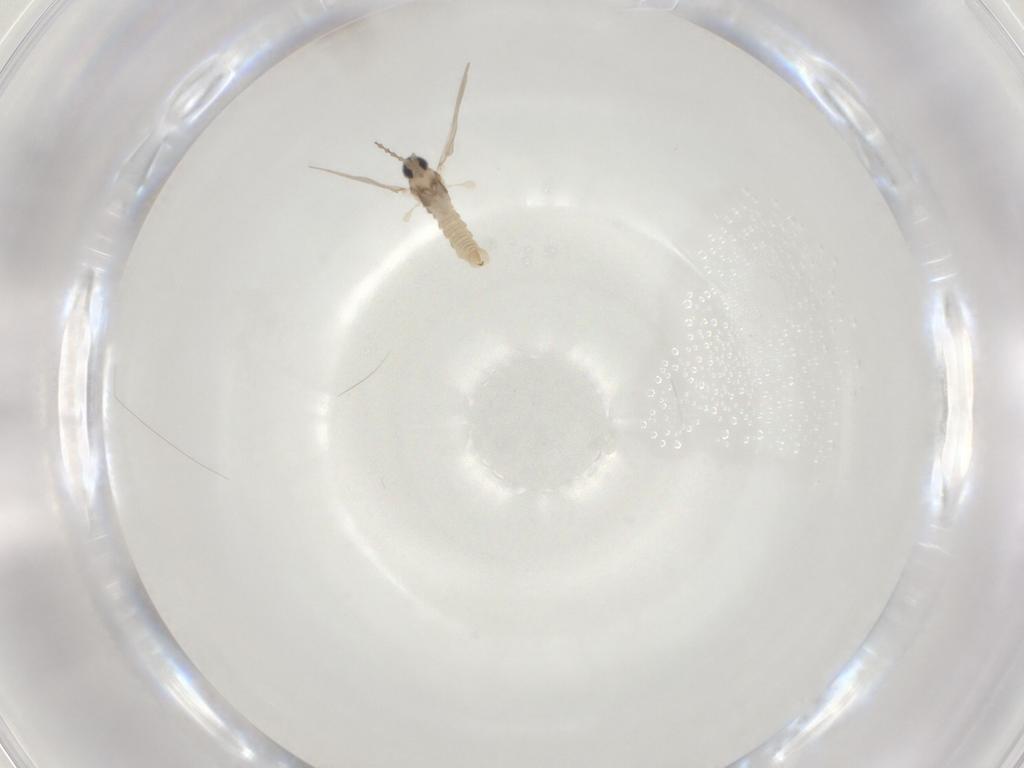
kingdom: Animalia
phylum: Arthropoda
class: Insecta
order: Diptera
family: Cecidomyiidae
